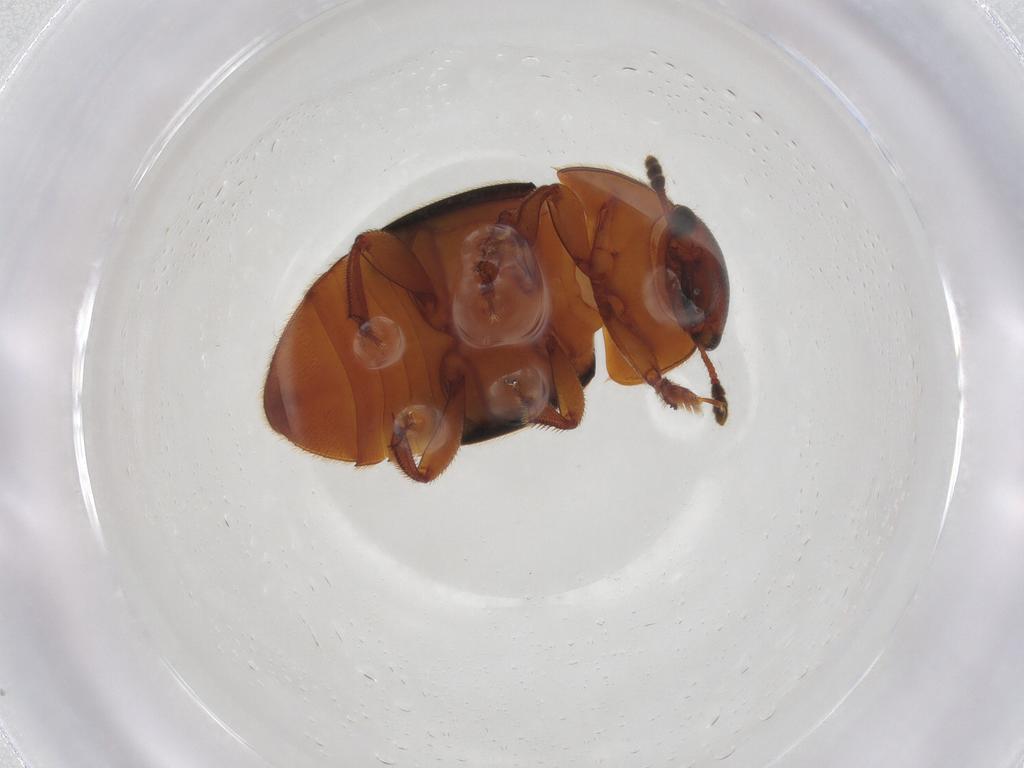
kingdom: Animalia
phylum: Arthropoda
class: Insecta
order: Coleoptera
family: Nitidulidae
